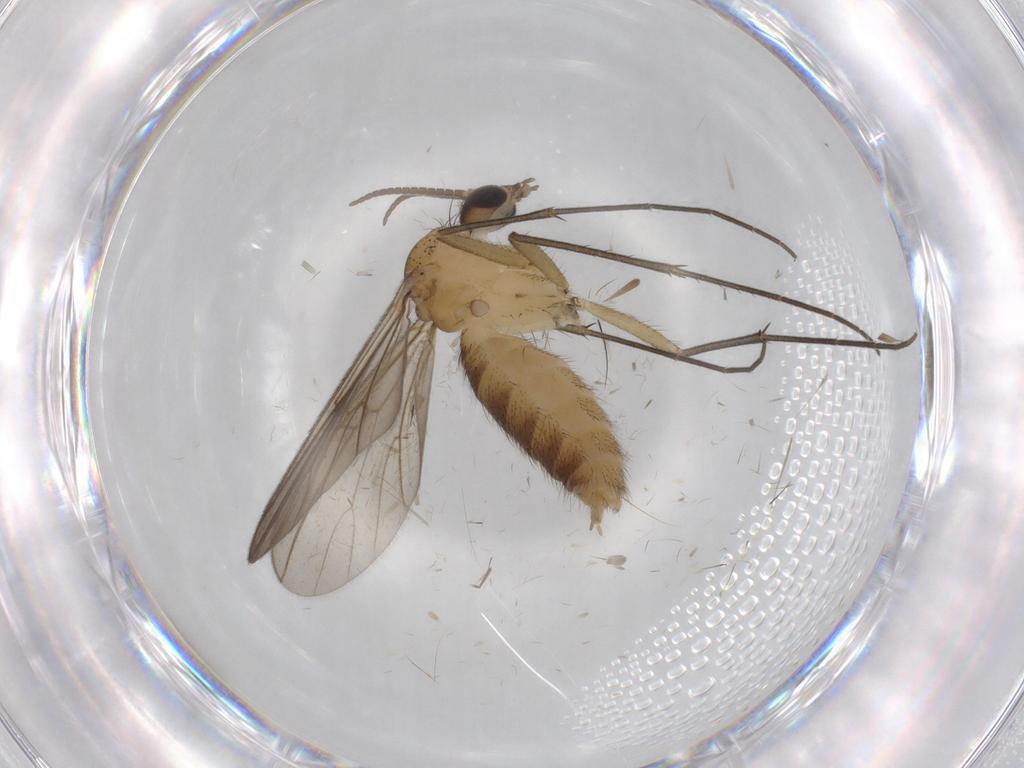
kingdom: Animalia
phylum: Arthropoda
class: Insecta
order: Diptera
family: Mycetophilidae
